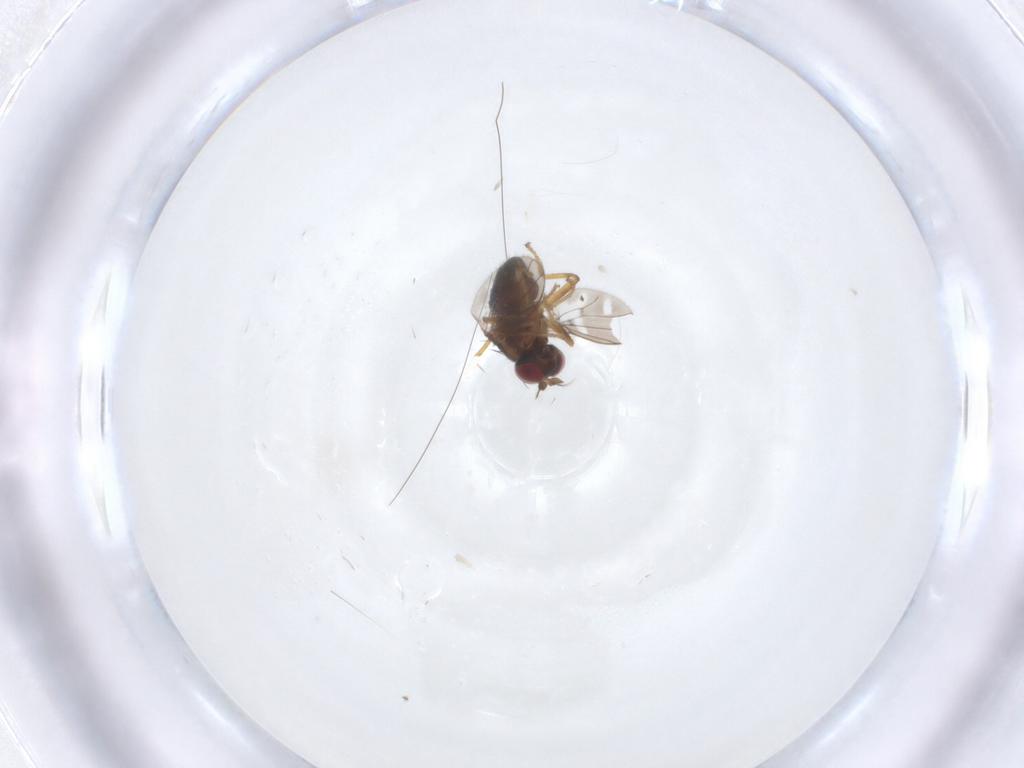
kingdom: Animalia
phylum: Arthropoda
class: Insecta
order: Diptera
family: Ephydridae
